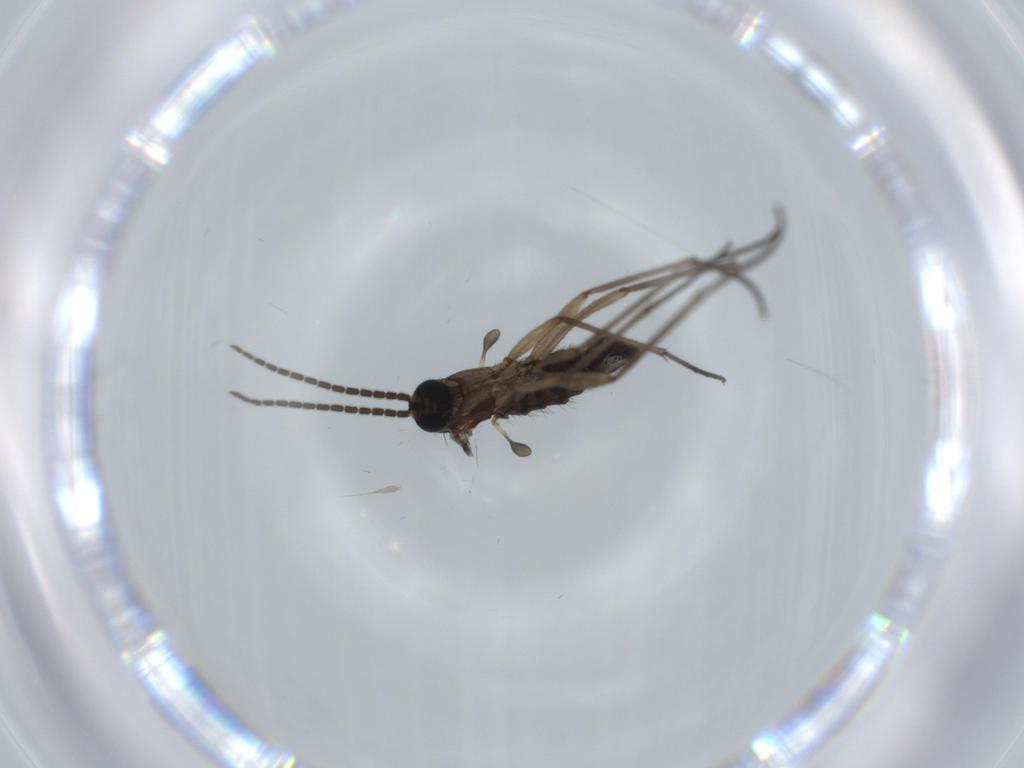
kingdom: Animalia
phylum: Arthropoda
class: Insecta
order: Diptera
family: Sciaridae
